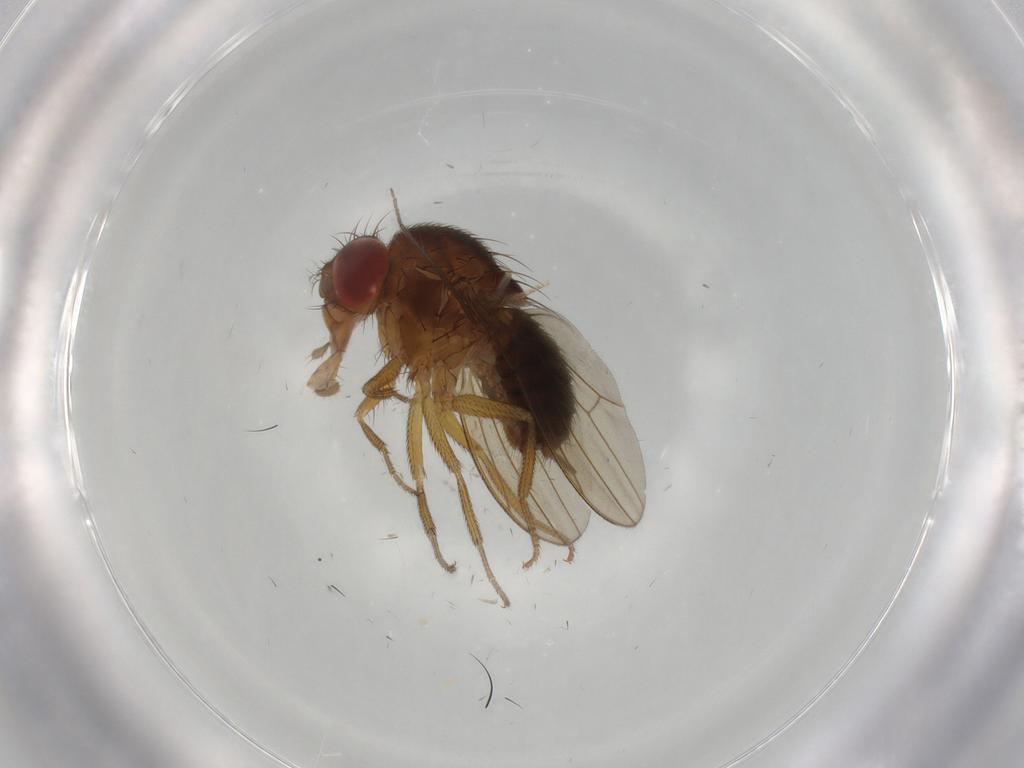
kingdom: Animalia
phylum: Arthropoda
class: Insecta
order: Diptera
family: Drosophilidae
